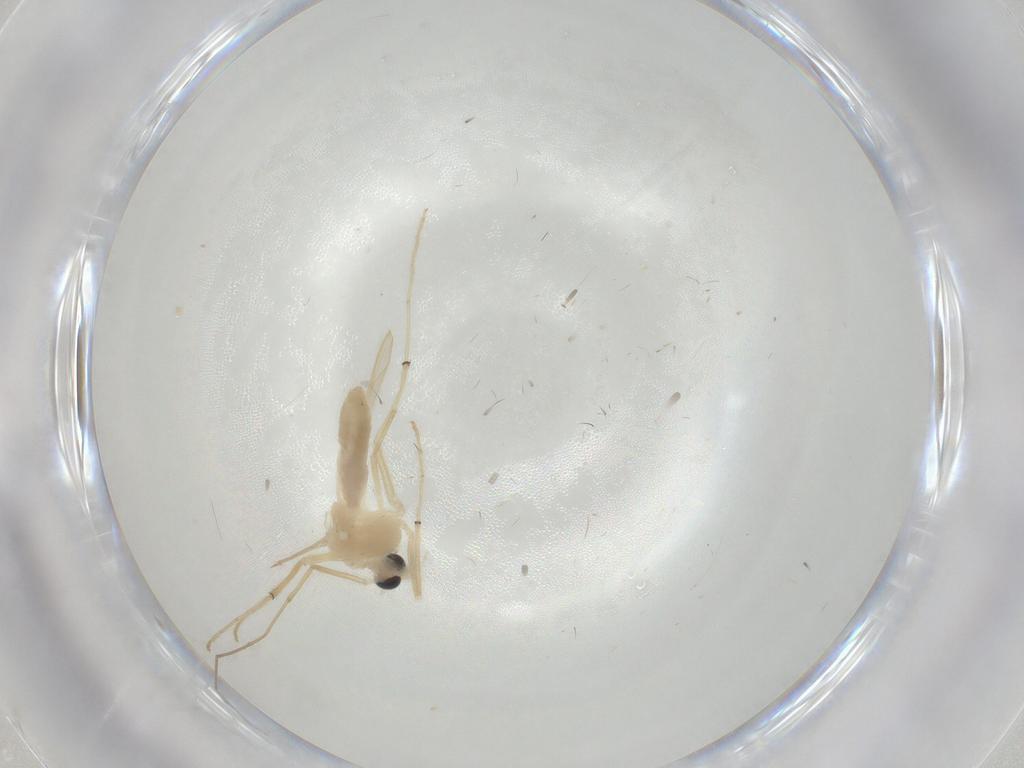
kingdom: Animalia
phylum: Arthropoda
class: Insecta
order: Diptera
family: Chironomidae
